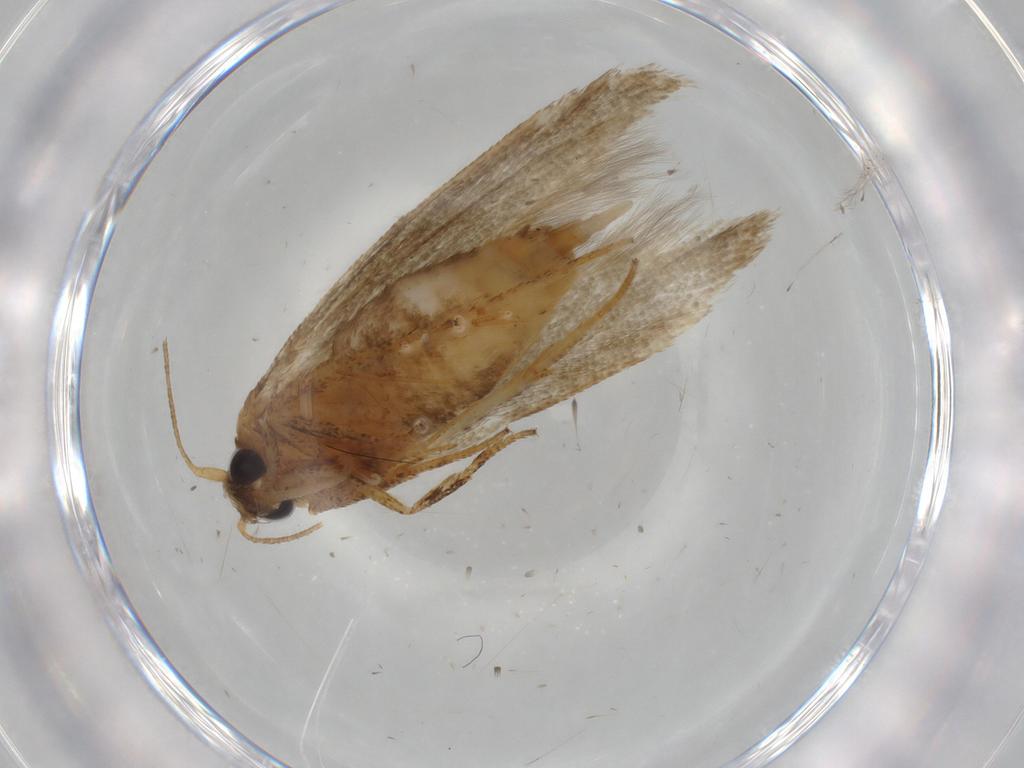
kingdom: Animalia
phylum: Arthropoda
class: Insecta
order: Lepidoptera
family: Blastobasidae
